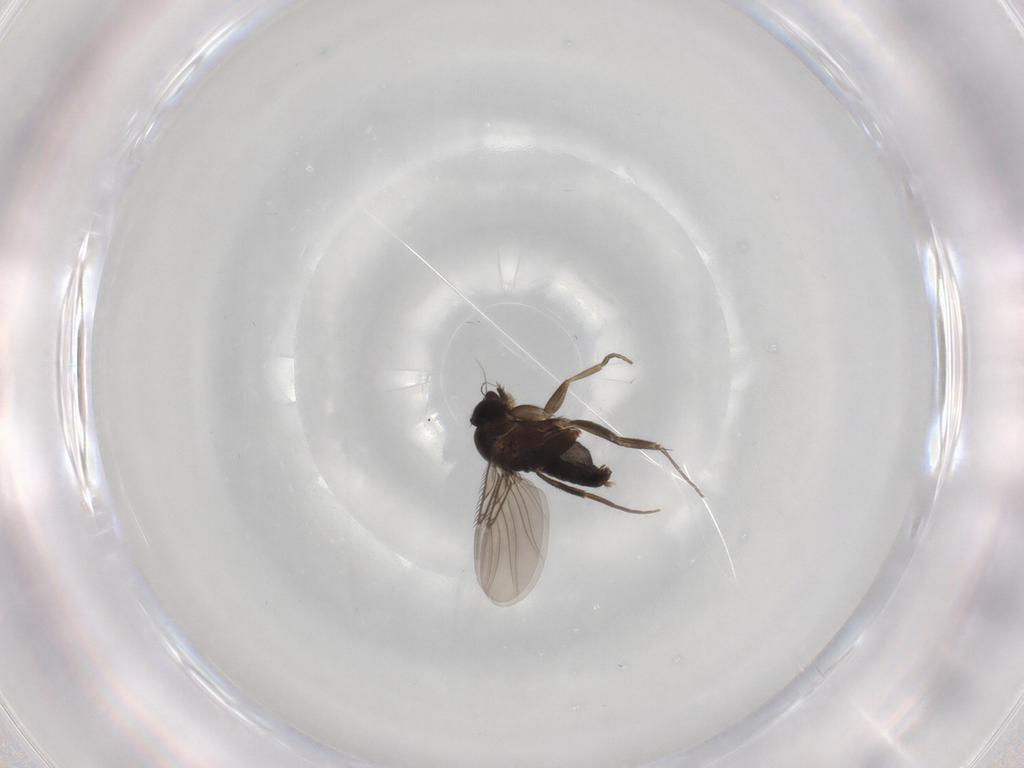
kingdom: Animalia
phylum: Arthropoda
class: Insecta
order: Diptera
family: Phoridae
